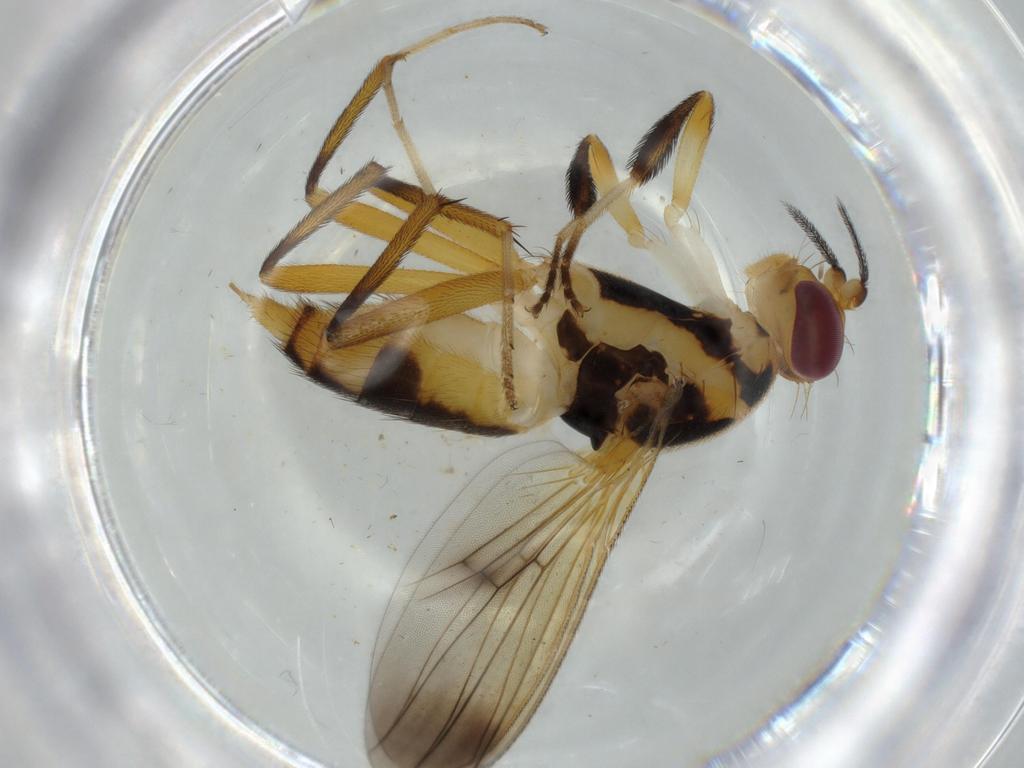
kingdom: Animalia
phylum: Arthropoda
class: Insecta
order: Diptera
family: Clusiidae
